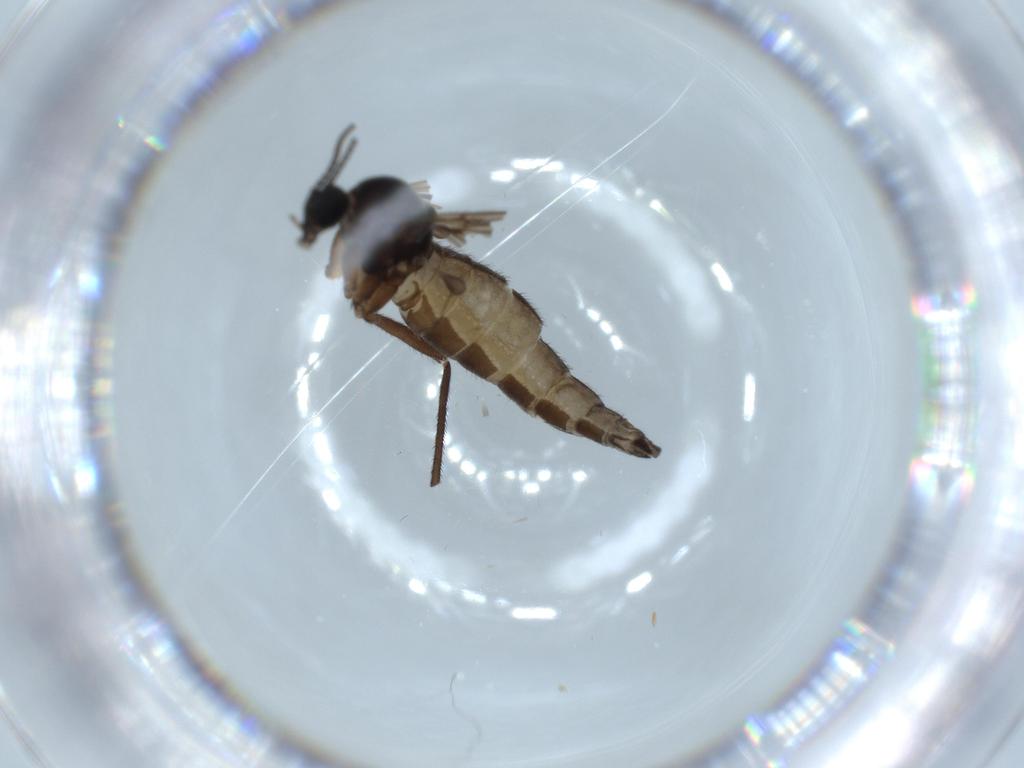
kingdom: Animalia
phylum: Arthropoda
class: Insecta
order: Diptera
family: Sciaridae
